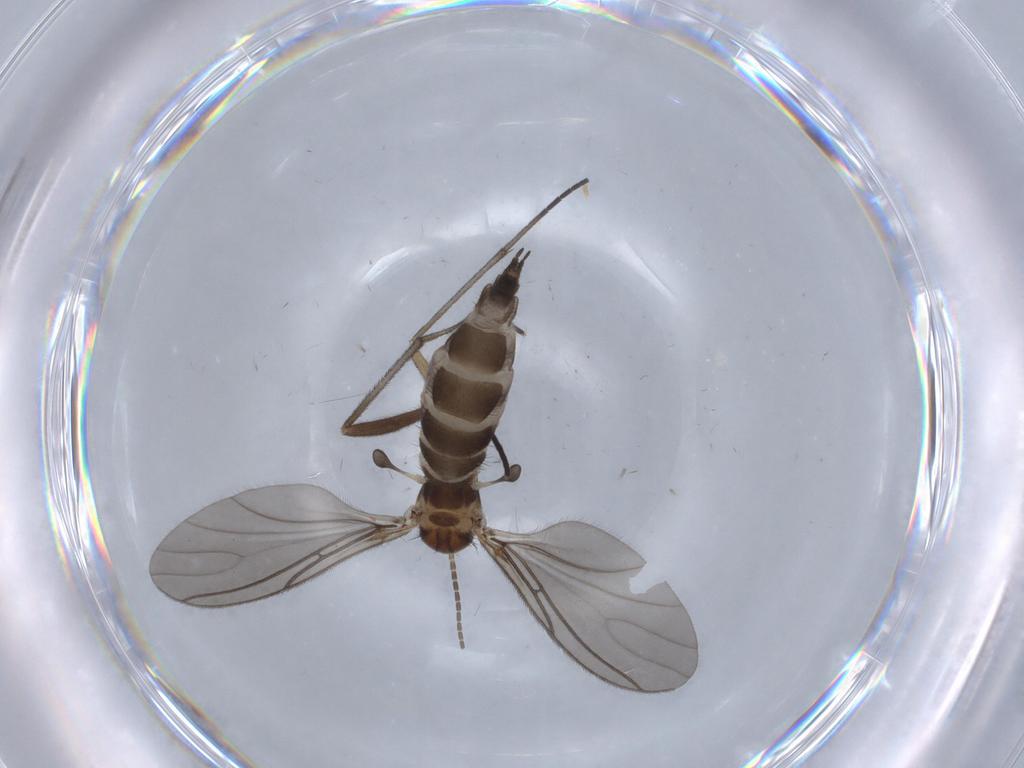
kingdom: Animalia
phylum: Arthropoda
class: Insecta
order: Diptera
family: Sciaridae
